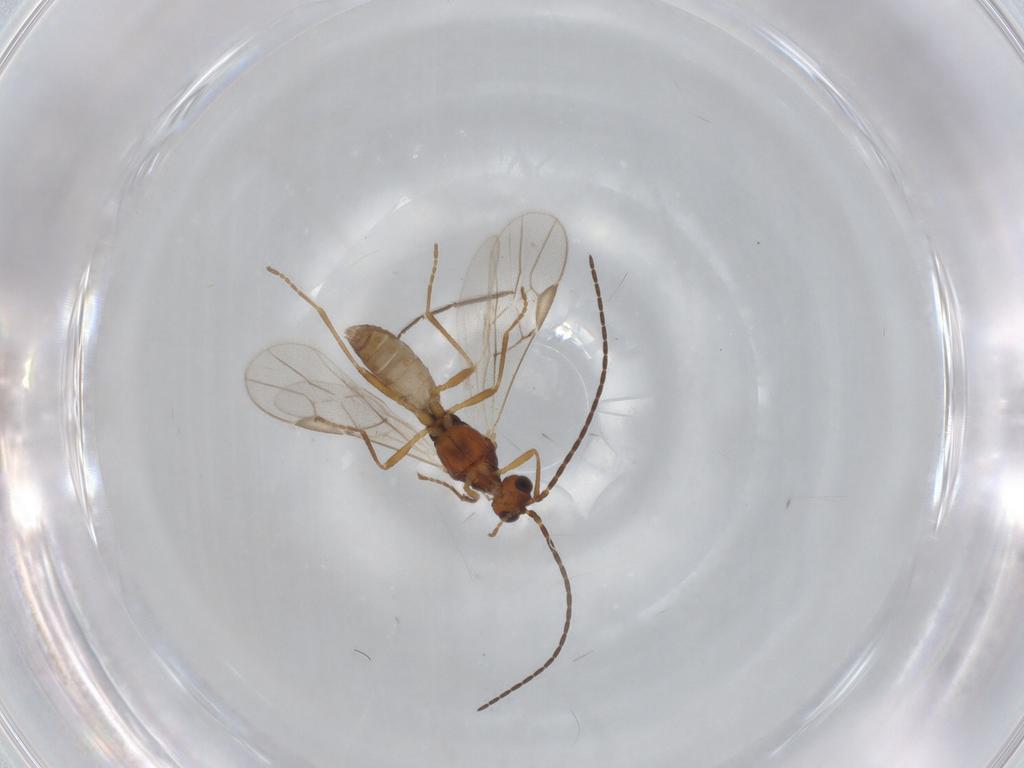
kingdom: Animalia
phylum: Arthropoda
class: Insecta
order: Hymenoptera
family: Braconidae
